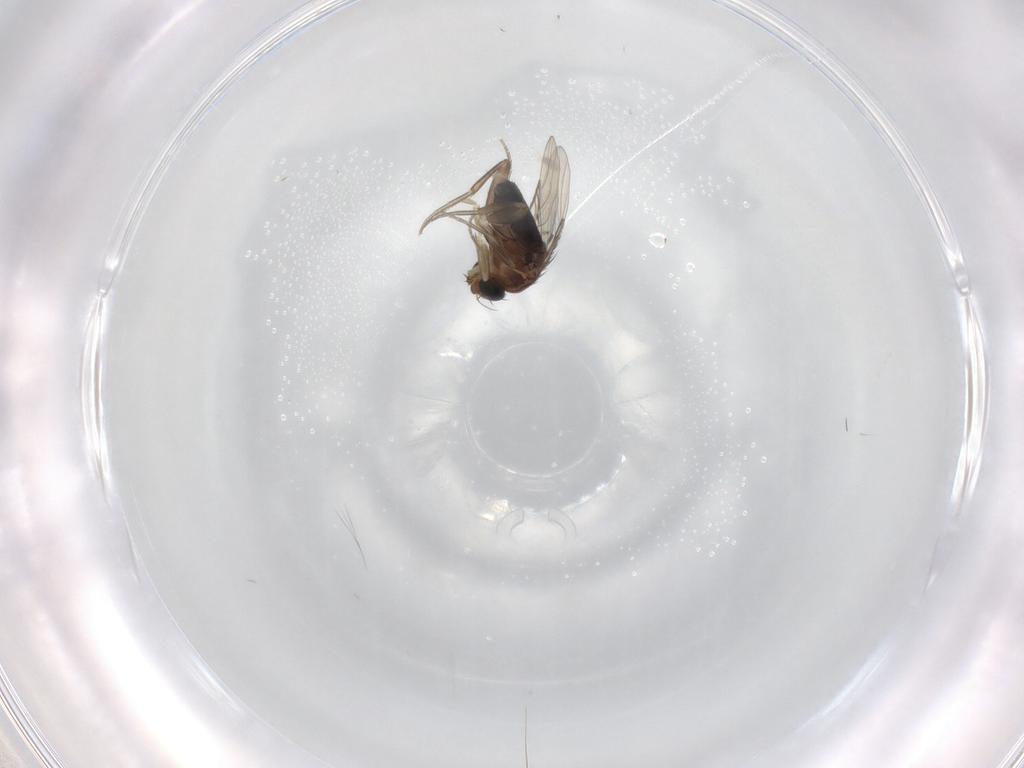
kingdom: Animalia
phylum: Arthropoda
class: Insecta
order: Diptera
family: Phoridae
